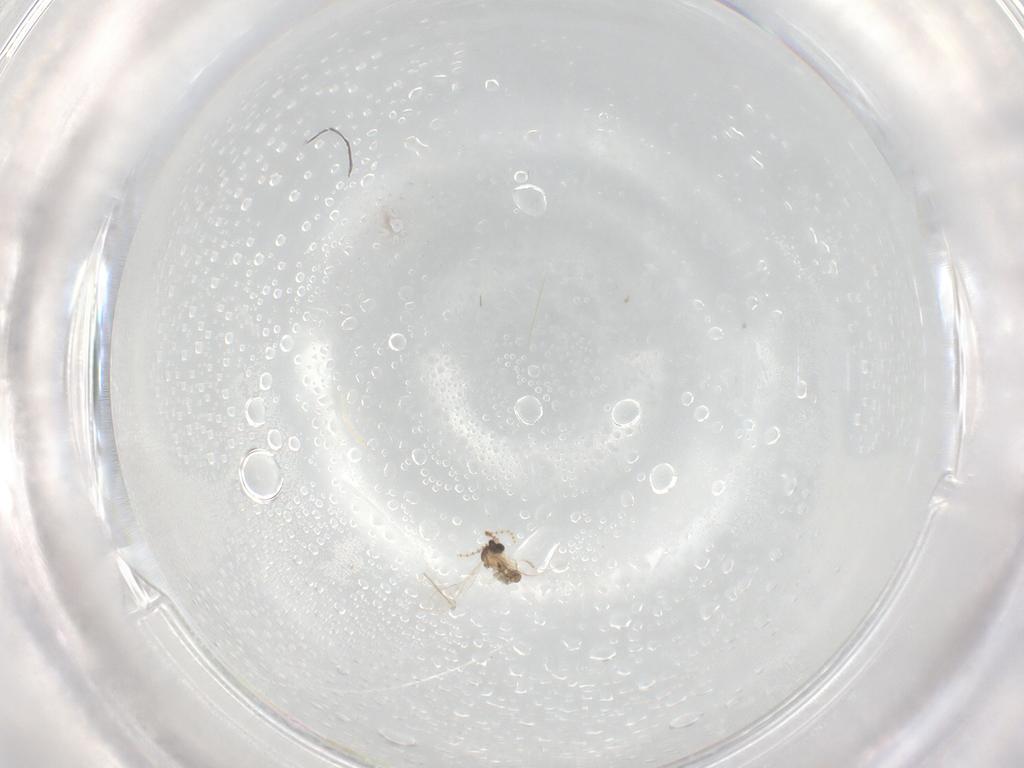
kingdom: Animalia
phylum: Arthropoda
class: Insecta
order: Diptera
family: Cecidomyiidae
